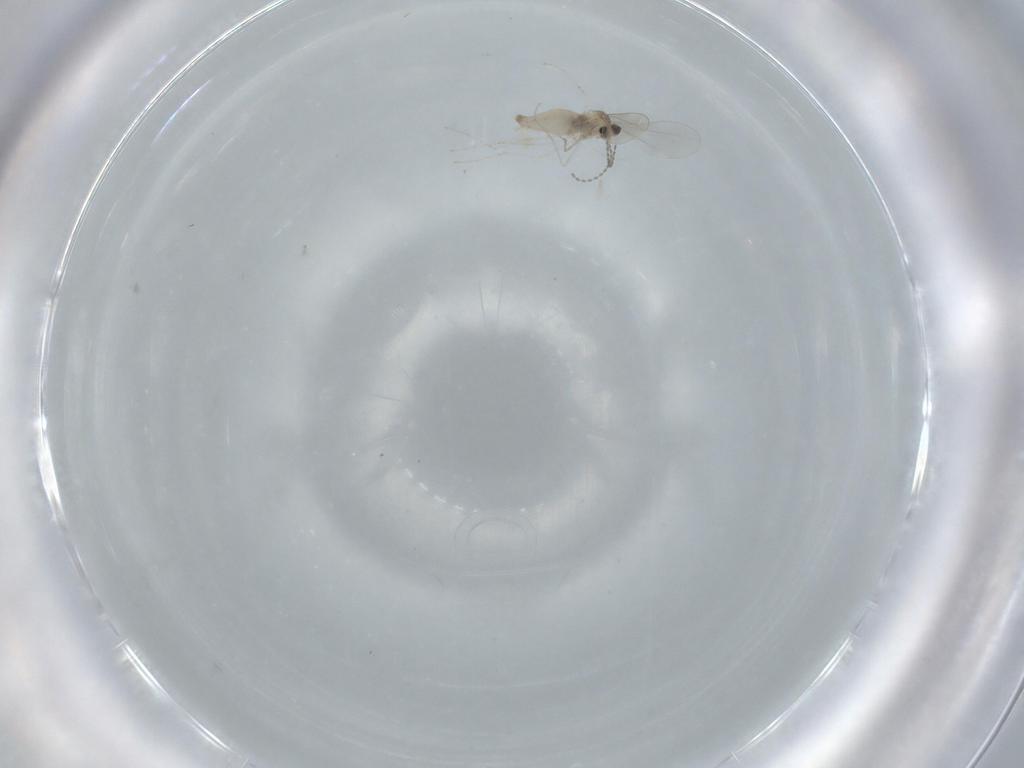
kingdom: Animalia
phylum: Arthropoda
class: Insecta
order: Diptera
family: Cecidomyiidae
